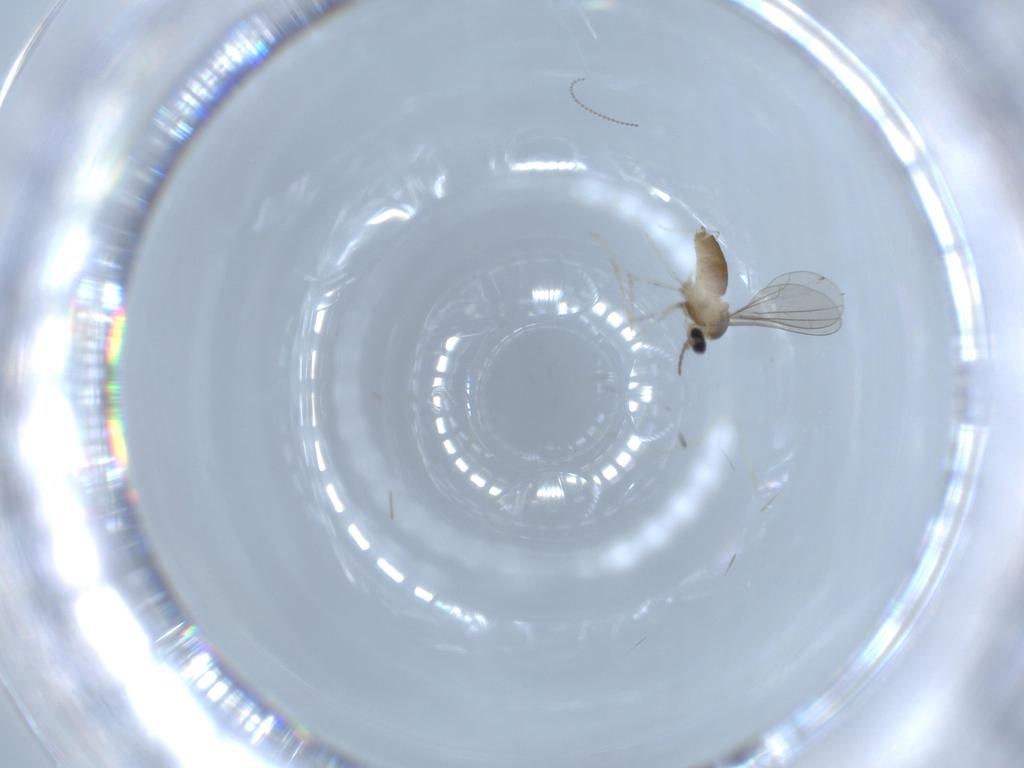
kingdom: Animalia
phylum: Arthropoda
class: Insecta
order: Diptera
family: Cecidomyiidae
